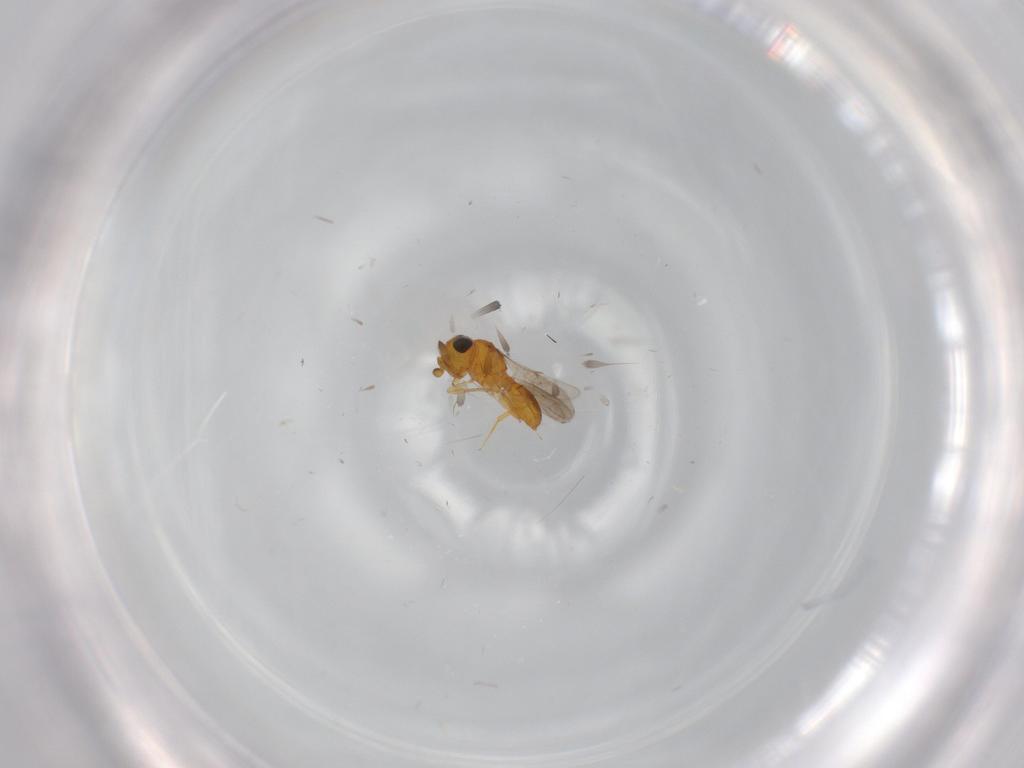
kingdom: Animalia
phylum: Arthropoda
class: Insecta
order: Hymenoptera
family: Scelionidae
